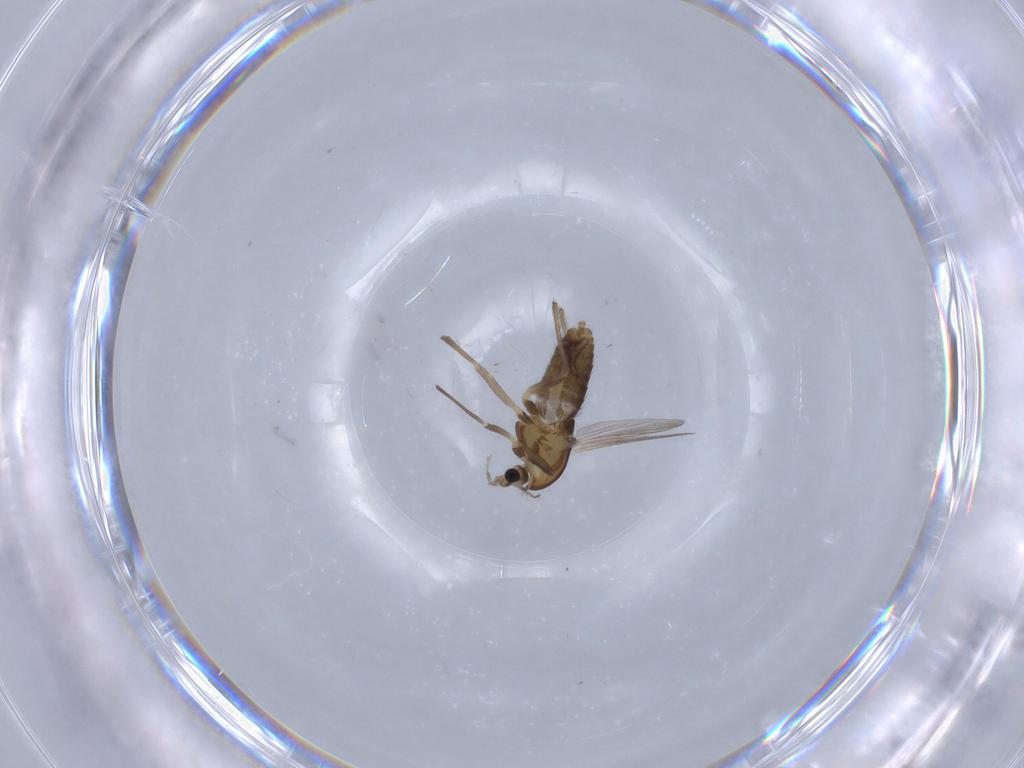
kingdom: Animalia
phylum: Arthropoda
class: Insecta
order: Diptera
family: Chironomidae
